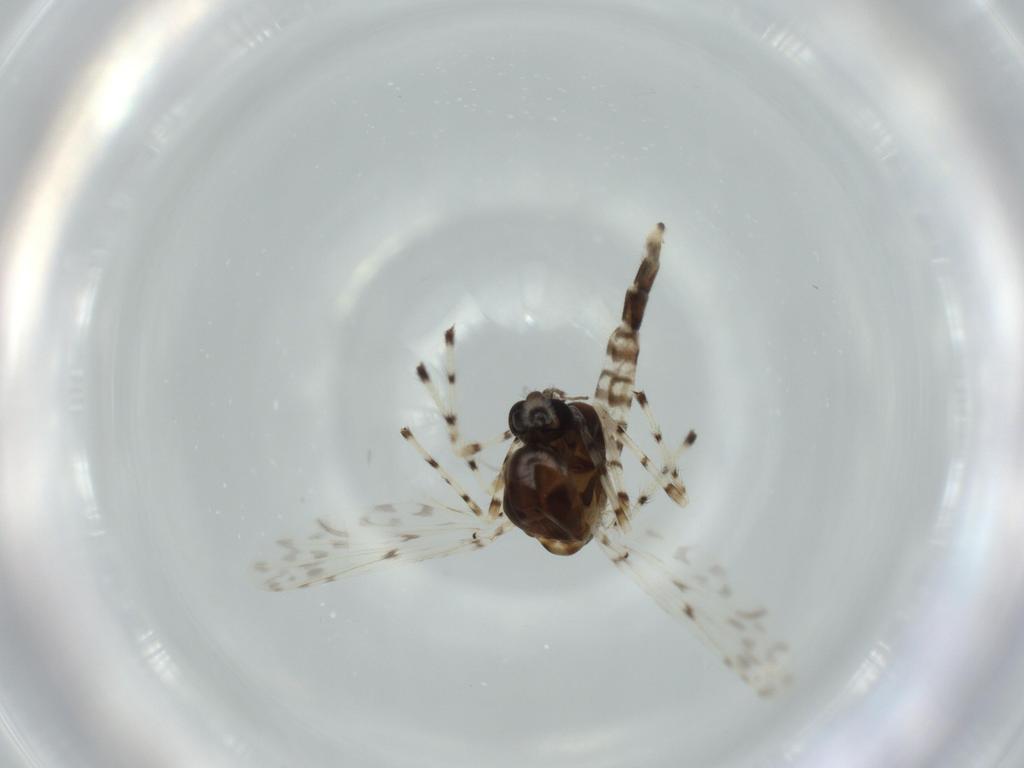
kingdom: Animalia
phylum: Arthropoda
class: Insecta
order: Diptera
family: Chironomidae
